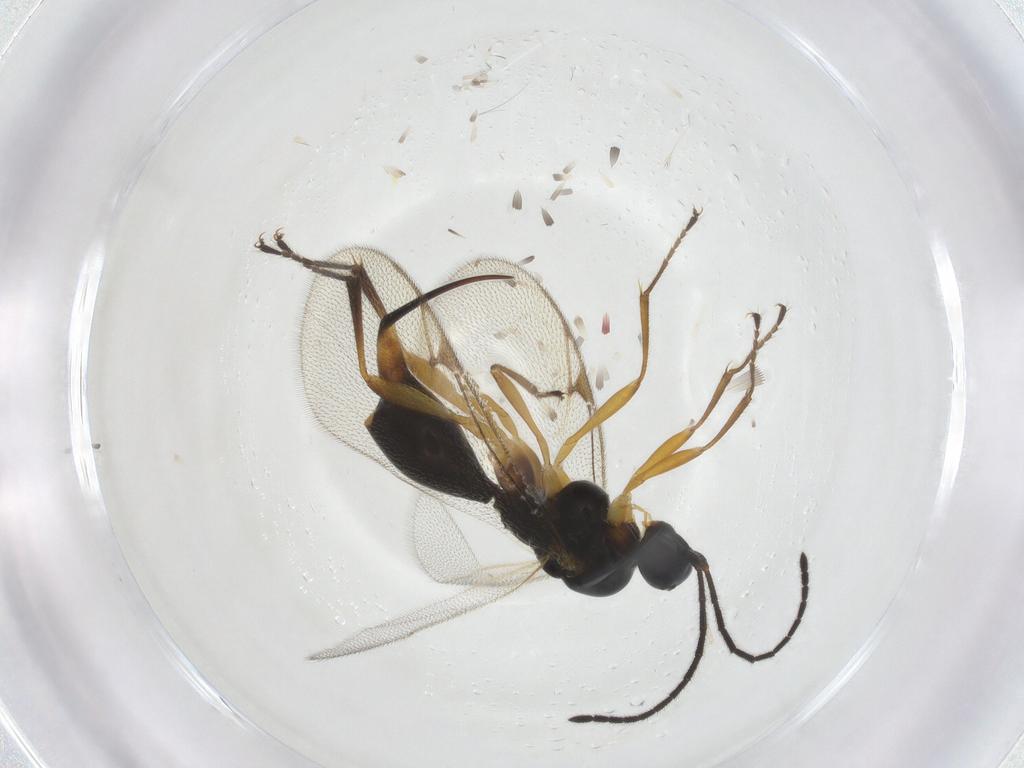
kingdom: Animalia
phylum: Arthropoda
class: Insecta
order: Hymenoptera
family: Proctotrupidae
